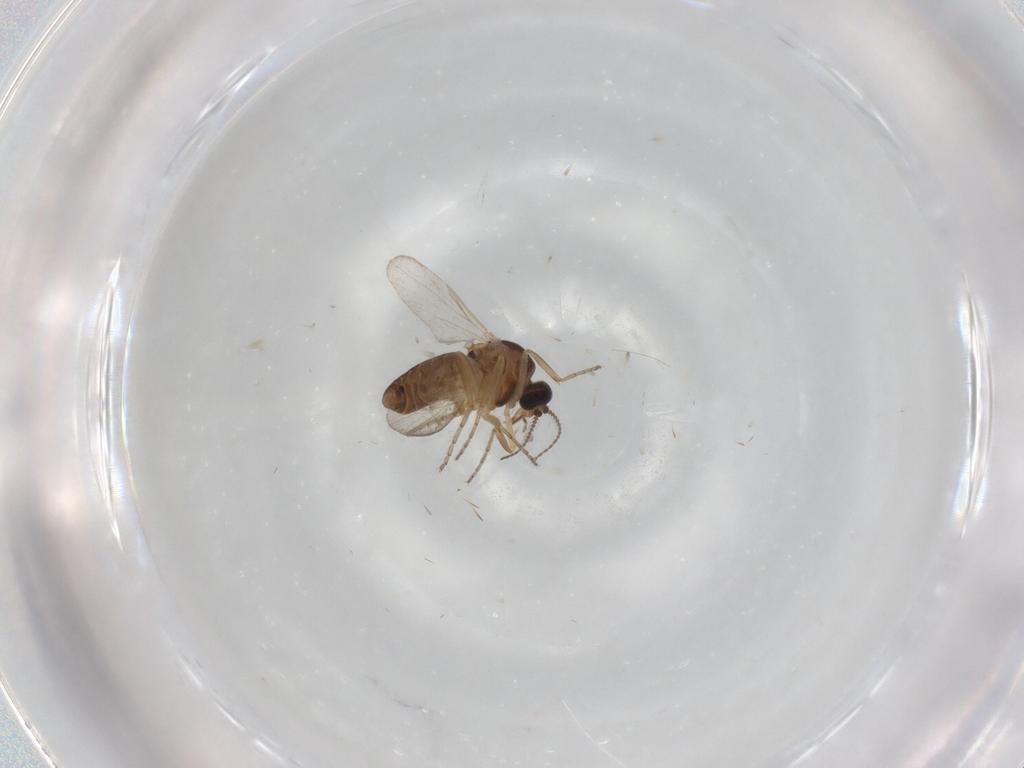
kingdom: Animalia
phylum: Arthropoda
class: Insecta
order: Diptera
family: Ceratopogonidae
